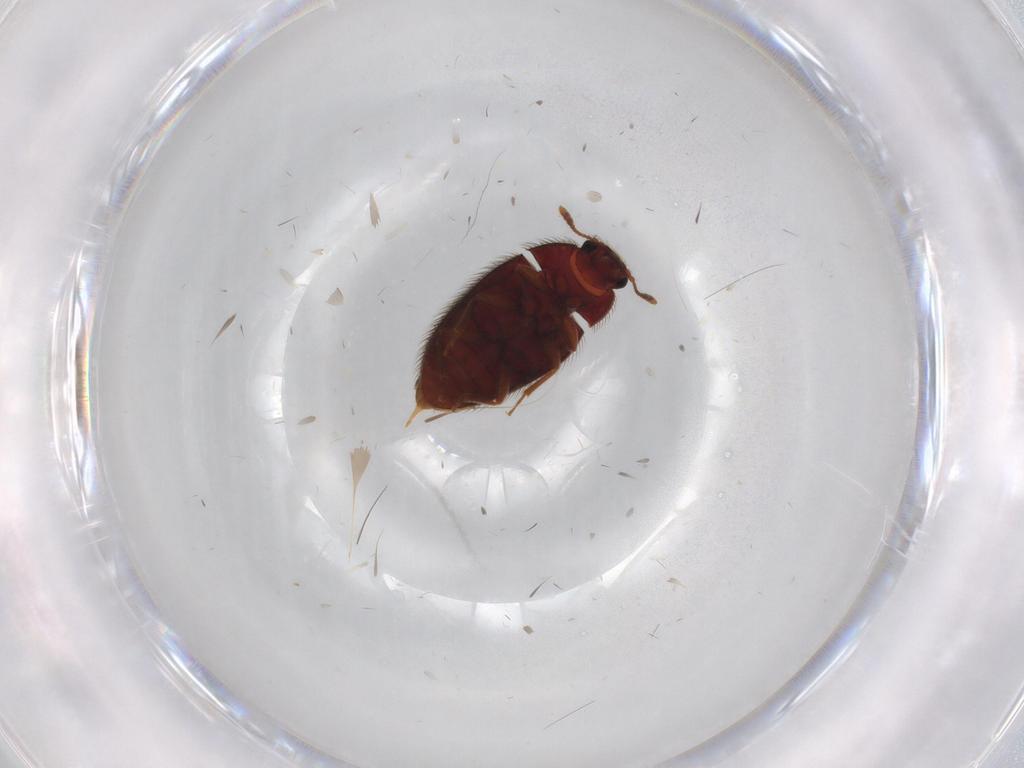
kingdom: Animalia
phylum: Arthropoda
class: Insecta
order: Coleoptera
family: Carabidae
